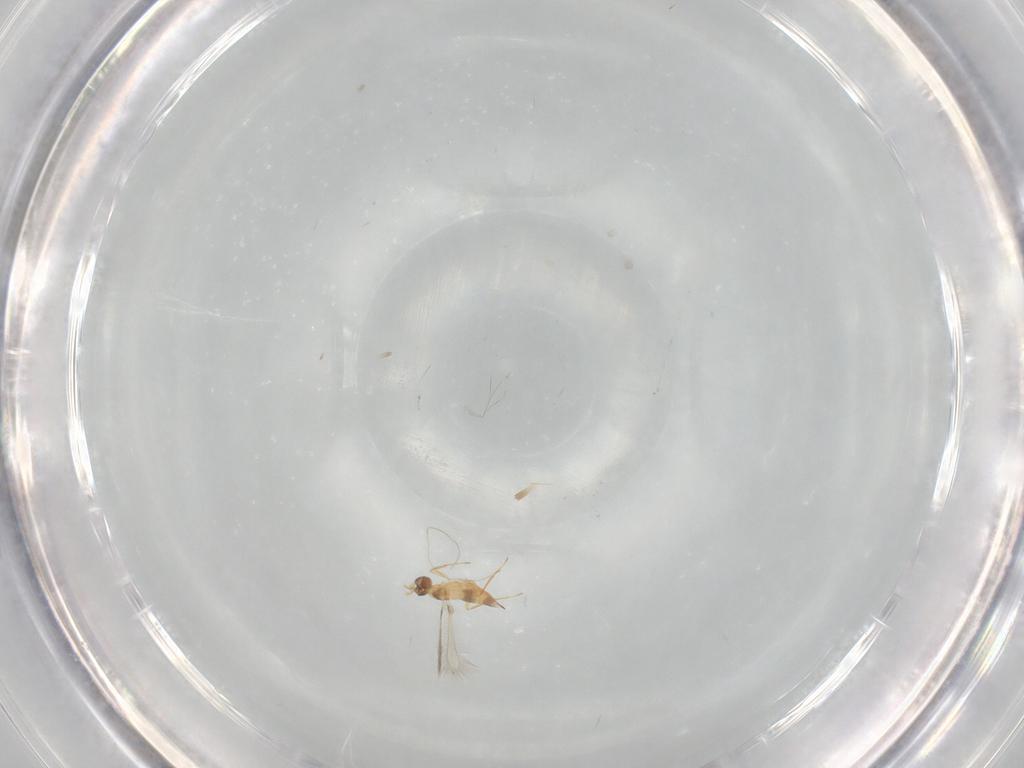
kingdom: Animalia
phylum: Arthropoda
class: Insecta
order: Hymenoptera
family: Mymaridae
